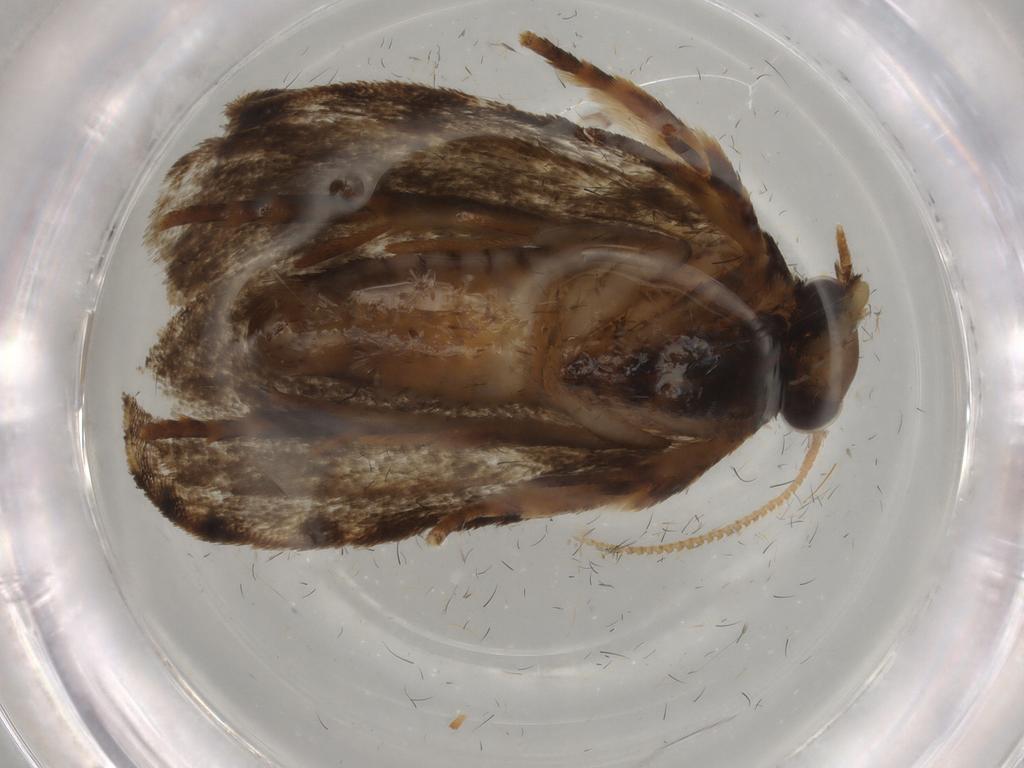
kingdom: Animalia
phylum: Arthropoda
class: Insecta
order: Lepidoptera
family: Tineidae
